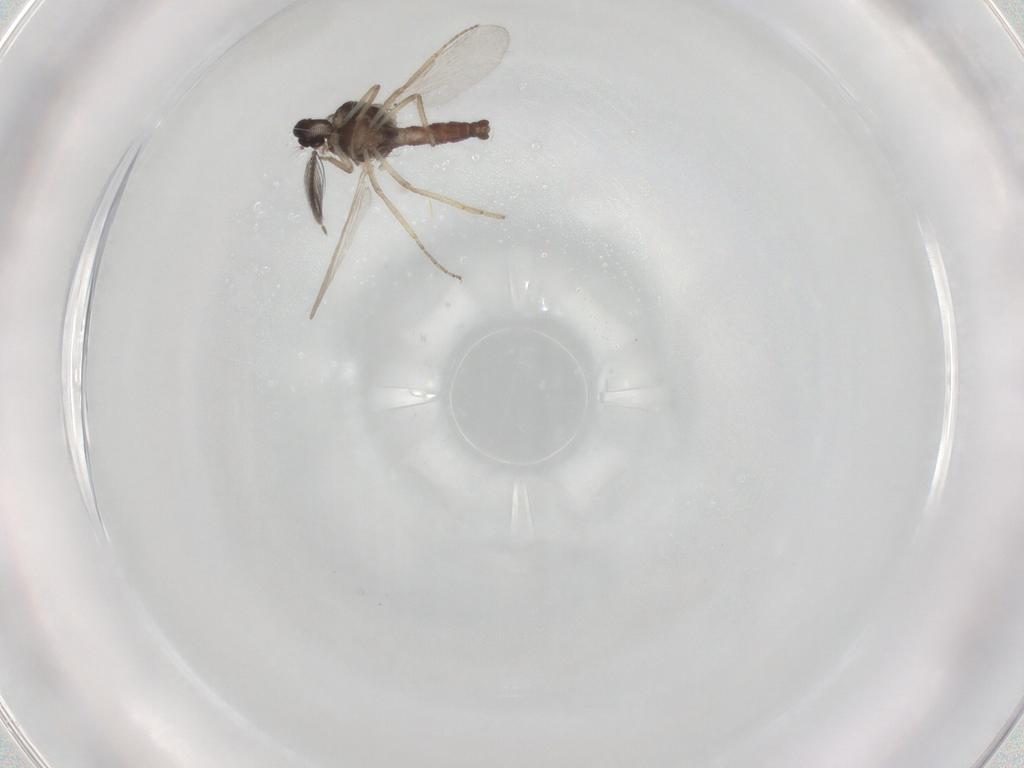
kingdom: Animalia
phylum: Arthropoda
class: Insecta
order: Diptera
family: Ceratopogonidae
